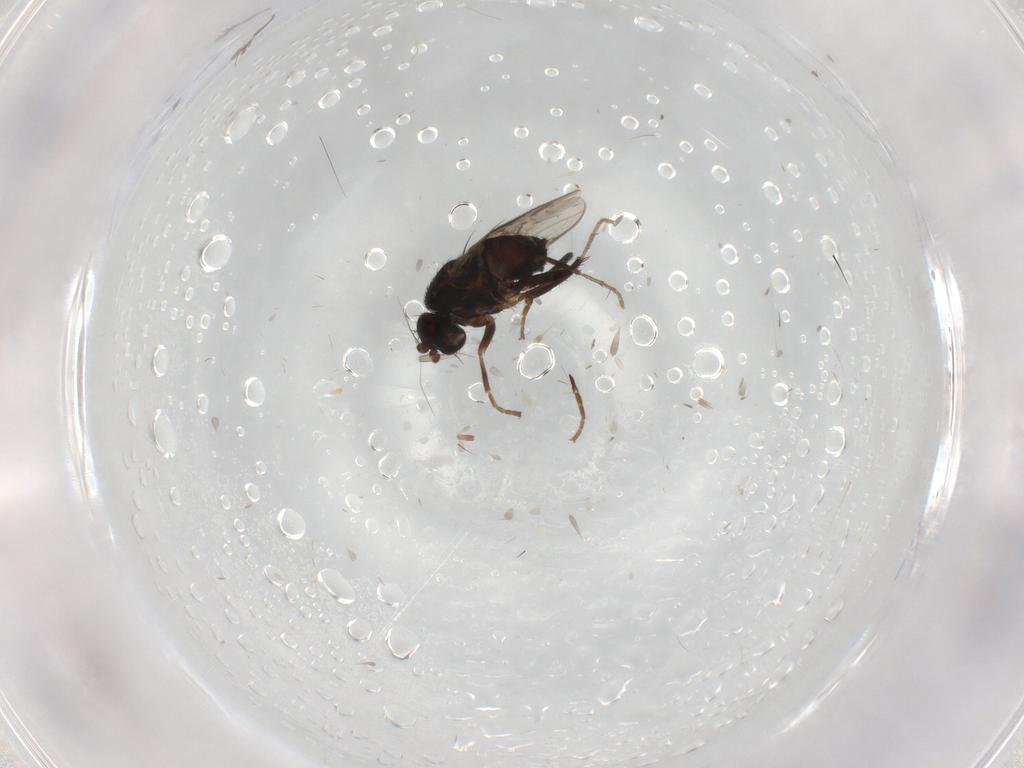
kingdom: Animalia
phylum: Arthropoda
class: Insecta
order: Diptera
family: Sphaeroceridae
